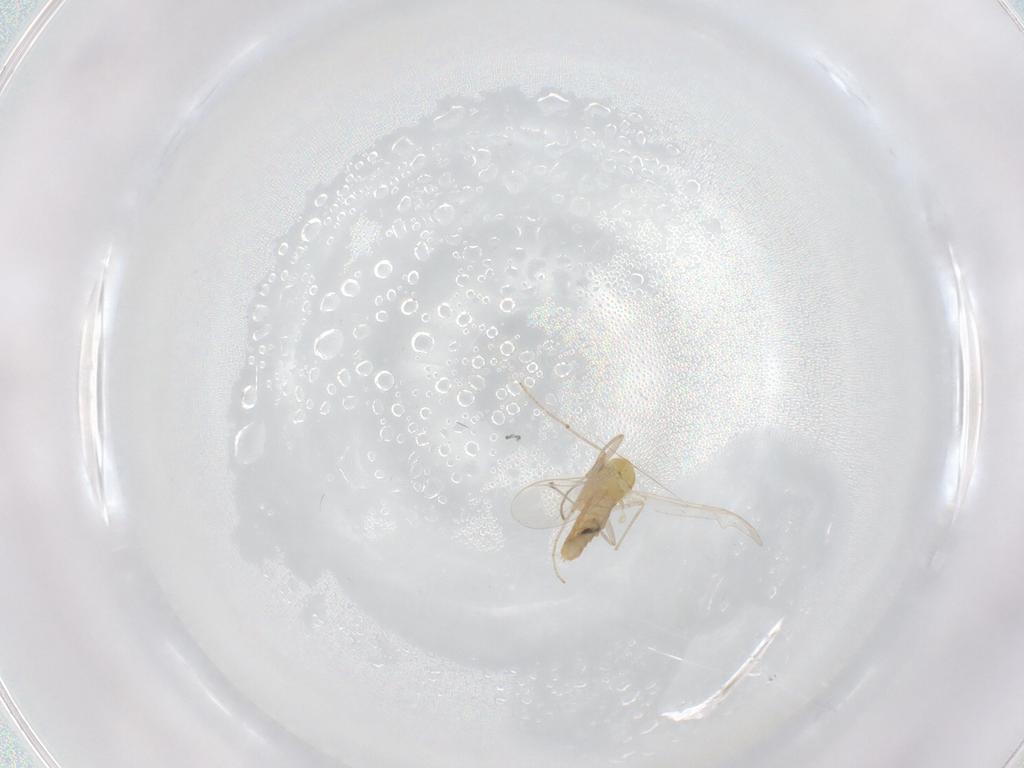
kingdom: Animalia
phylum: Arthropoda
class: Insecta
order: Diptera
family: Chironomidae
